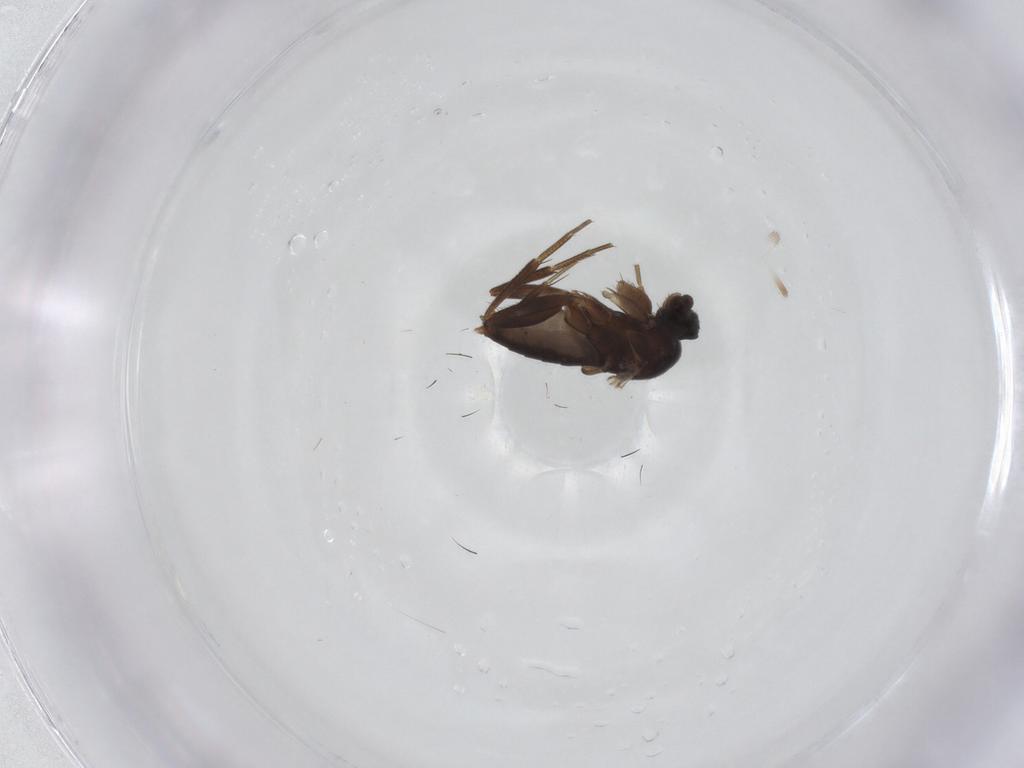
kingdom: Animalia
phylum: Arthropoda
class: Insecta
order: Diptera
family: Phoridae
